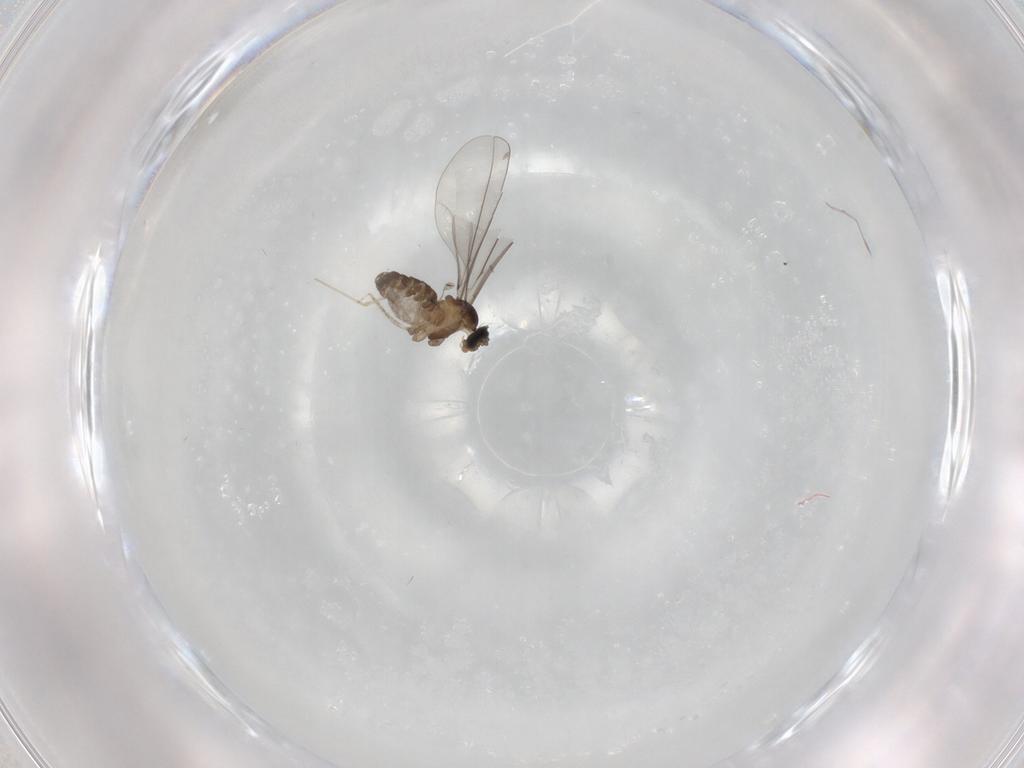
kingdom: Animalia
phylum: Arthropoda
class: Insecta
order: Diptera
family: Cecidomyiidae
